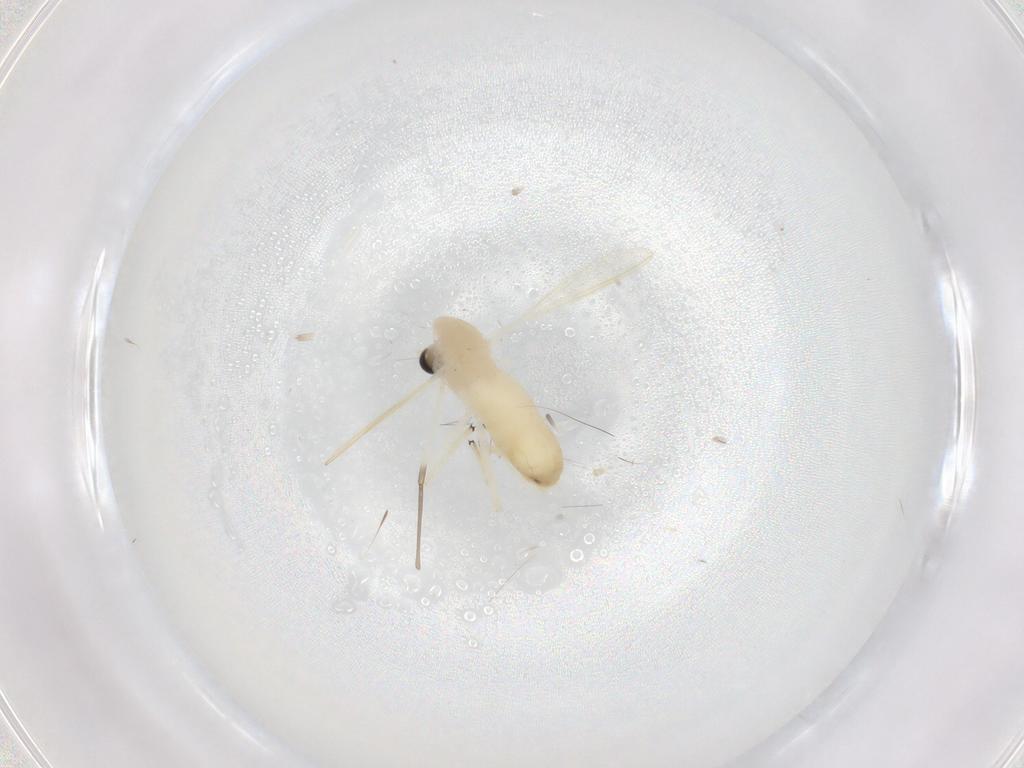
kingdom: Animalia
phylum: Arthropoda
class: Insecta
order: Diptera
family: Chironomidae
